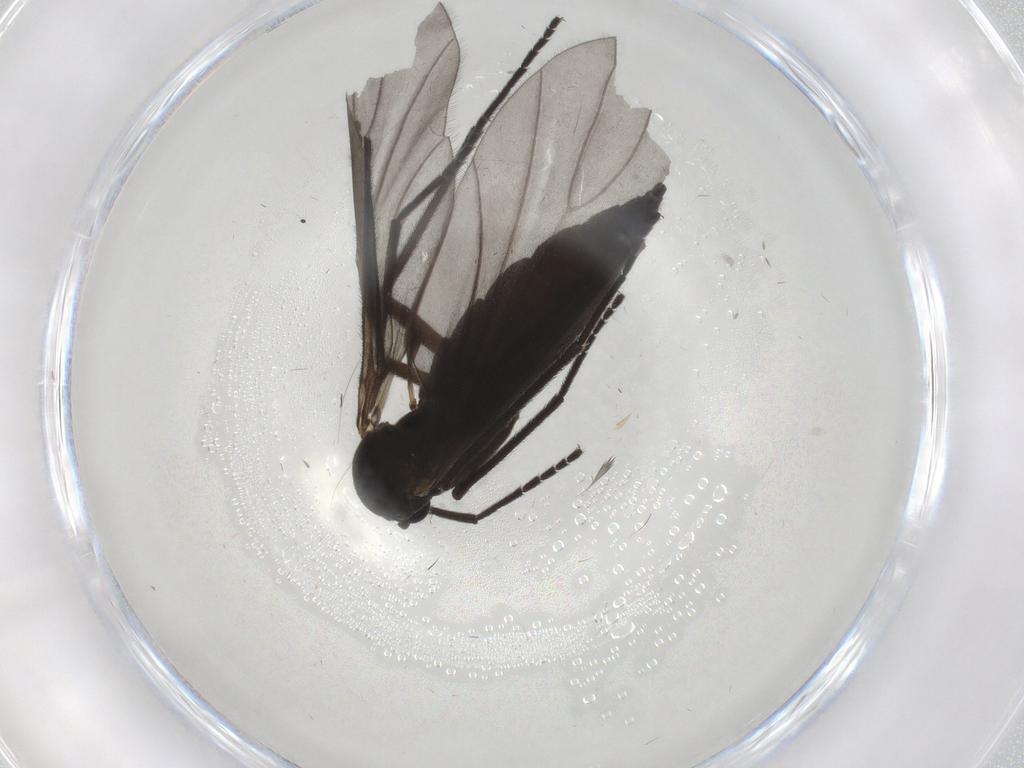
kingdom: Animalia
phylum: Arthropoda
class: Insecta
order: Diptera
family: Sciaridae
